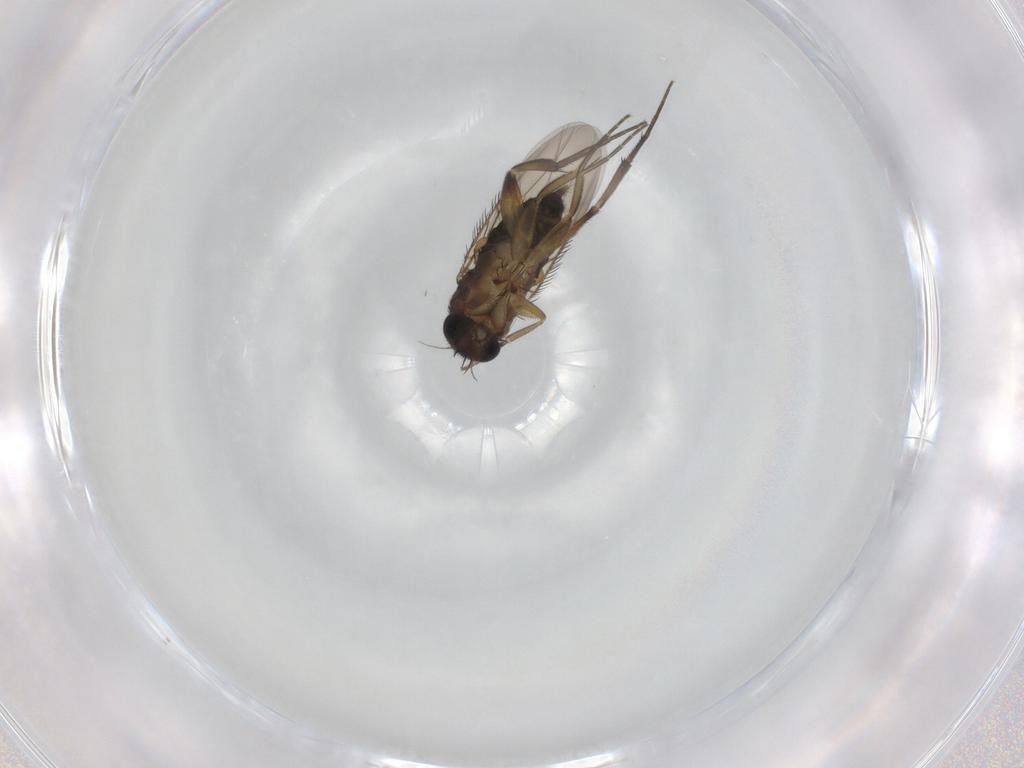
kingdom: Animalia
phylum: Arthropoda
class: Insecta
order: Diptera
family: Phoridae
